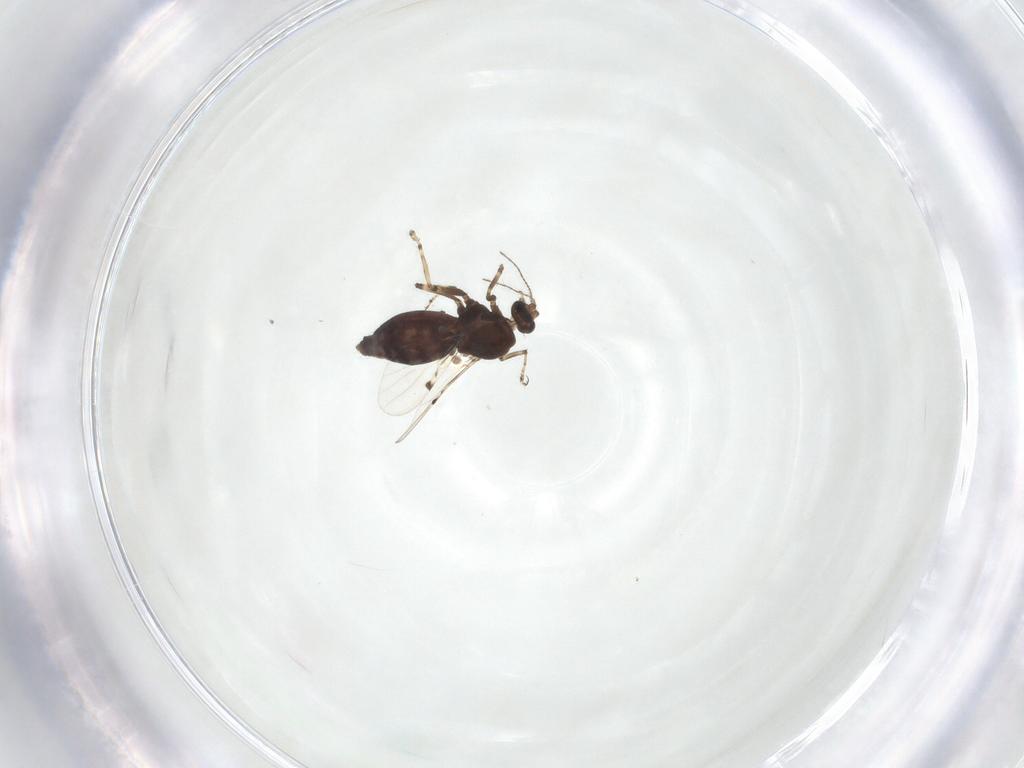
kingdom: Animalia
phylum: Arthropoda
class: Insecta
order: Diptera
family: Ceratopogonidae
